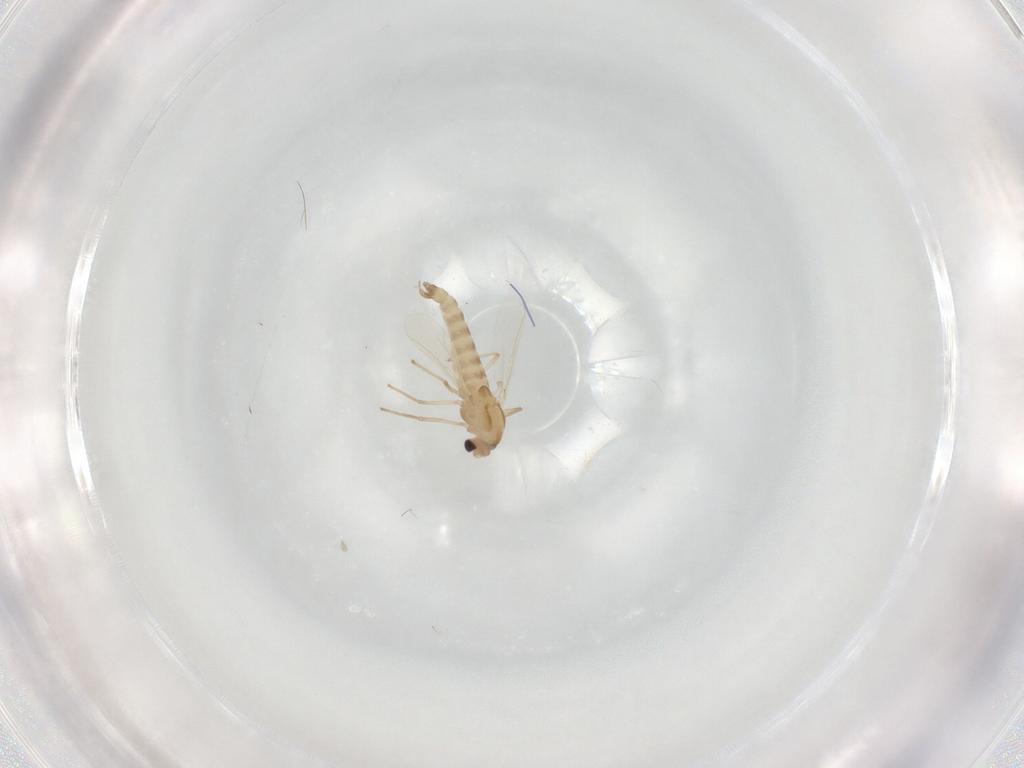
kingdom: Animalia
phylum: Arthropoda
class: Insecta
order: Diptera
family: Chironomidae
